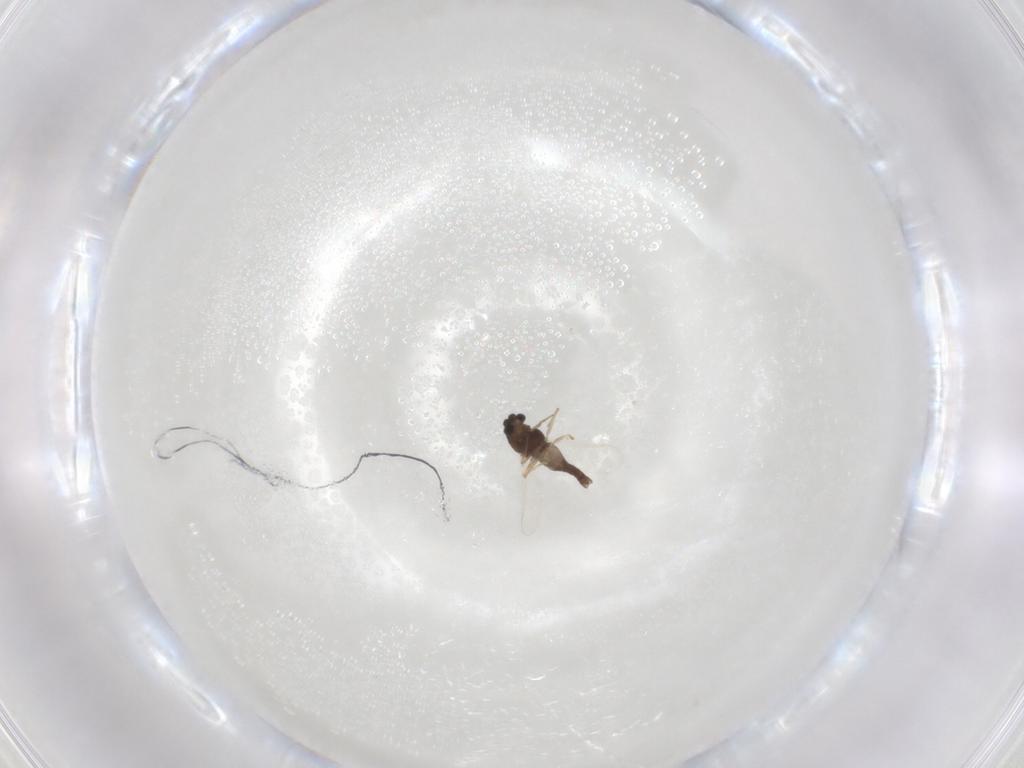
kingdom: Animalia
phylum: Arthropoda
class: Insecta
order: Diptera
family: Chironomidae
